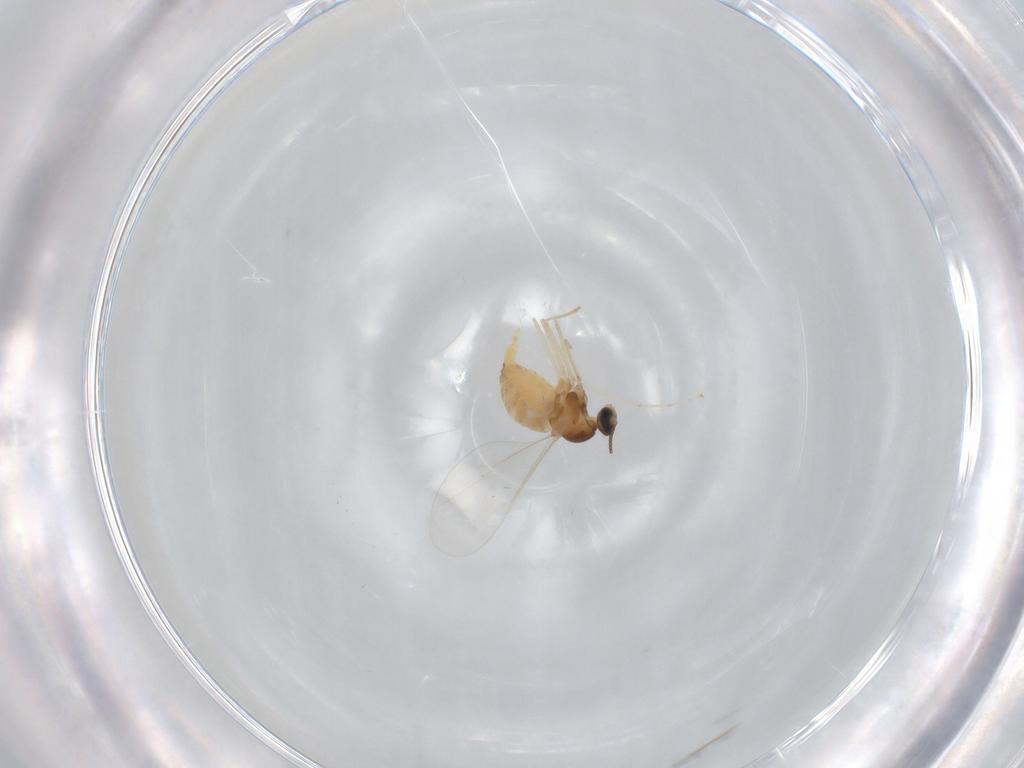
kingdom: Animalia
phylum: Arthropoda
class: Insecta
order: Diptera
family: Cecidomyiidae
